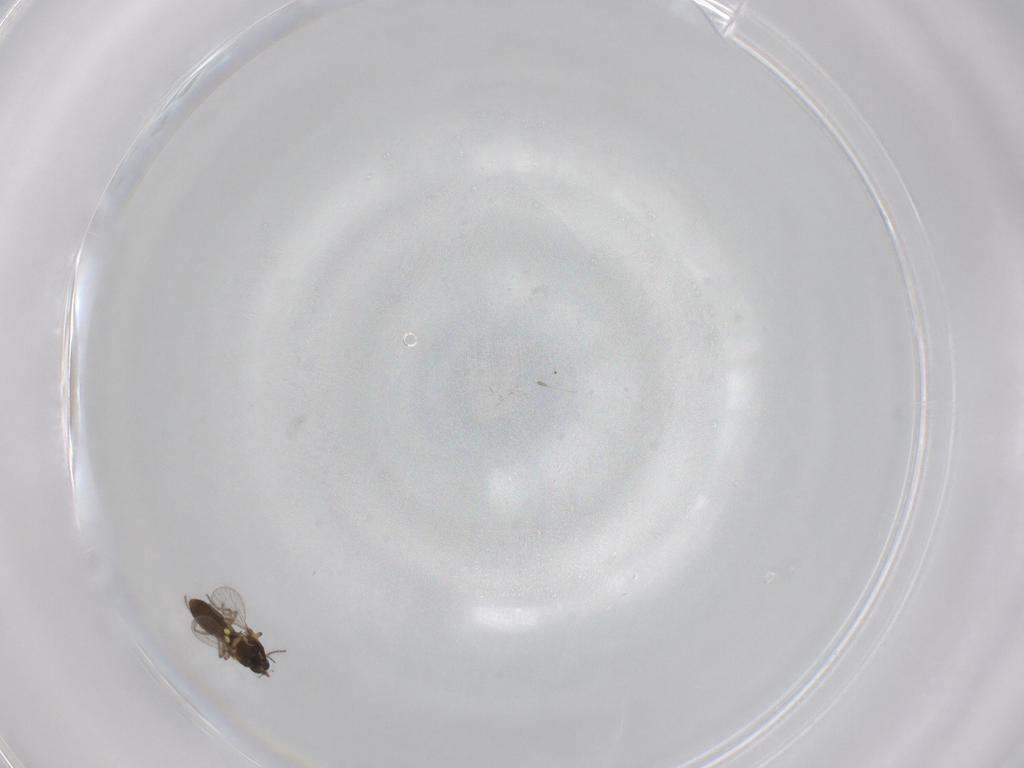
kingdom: Animalia
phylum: Arthropoda
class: Insecta
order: Diptera
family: Ceratopogonidae
